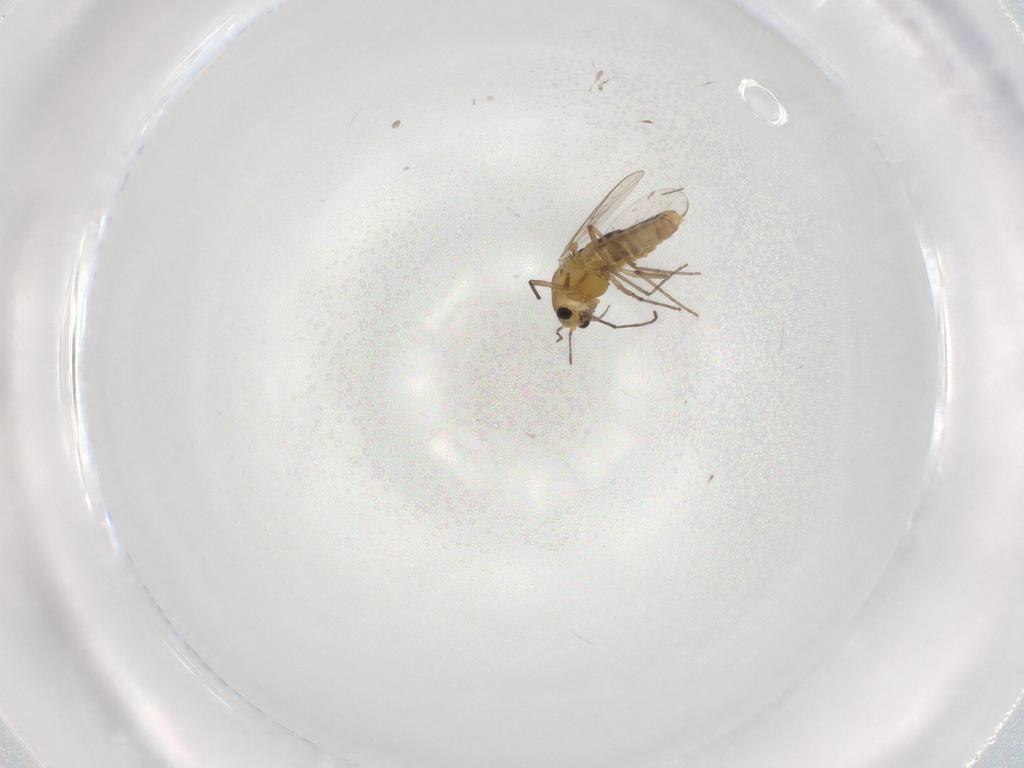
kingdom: Animalia
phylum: Arthropoda
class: Insecta
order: Diptera
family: Chironomidae
